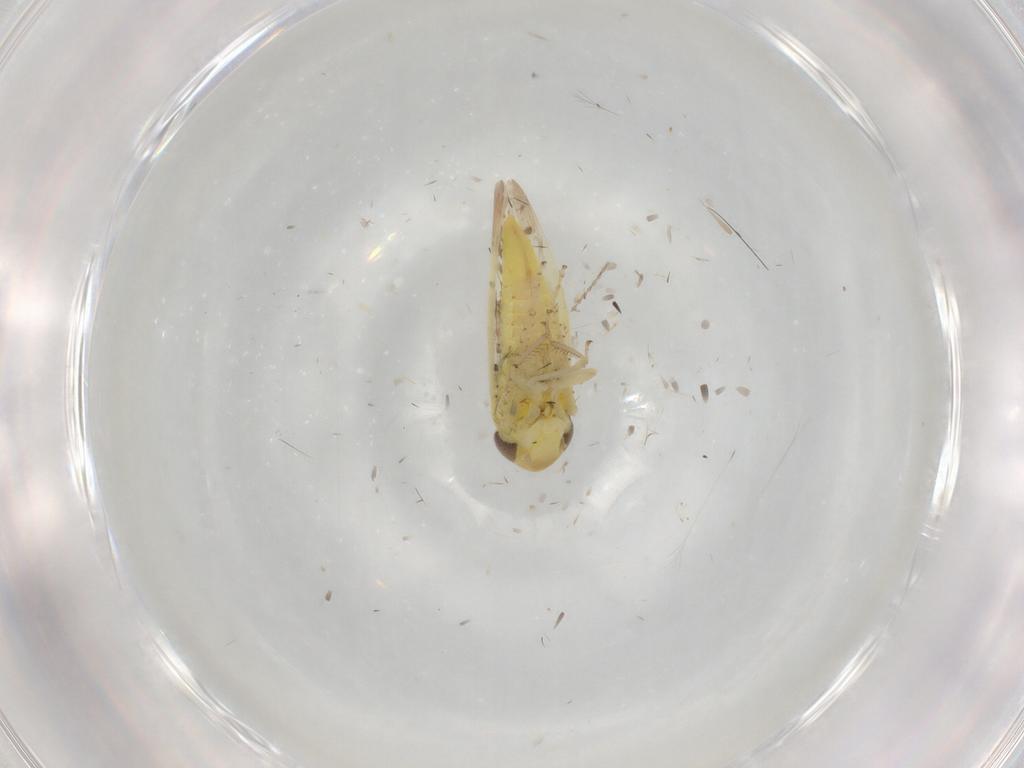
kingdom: Animalia
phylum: Arthropoda
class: Insecta
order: Hemiptera
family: Cicadellidae
